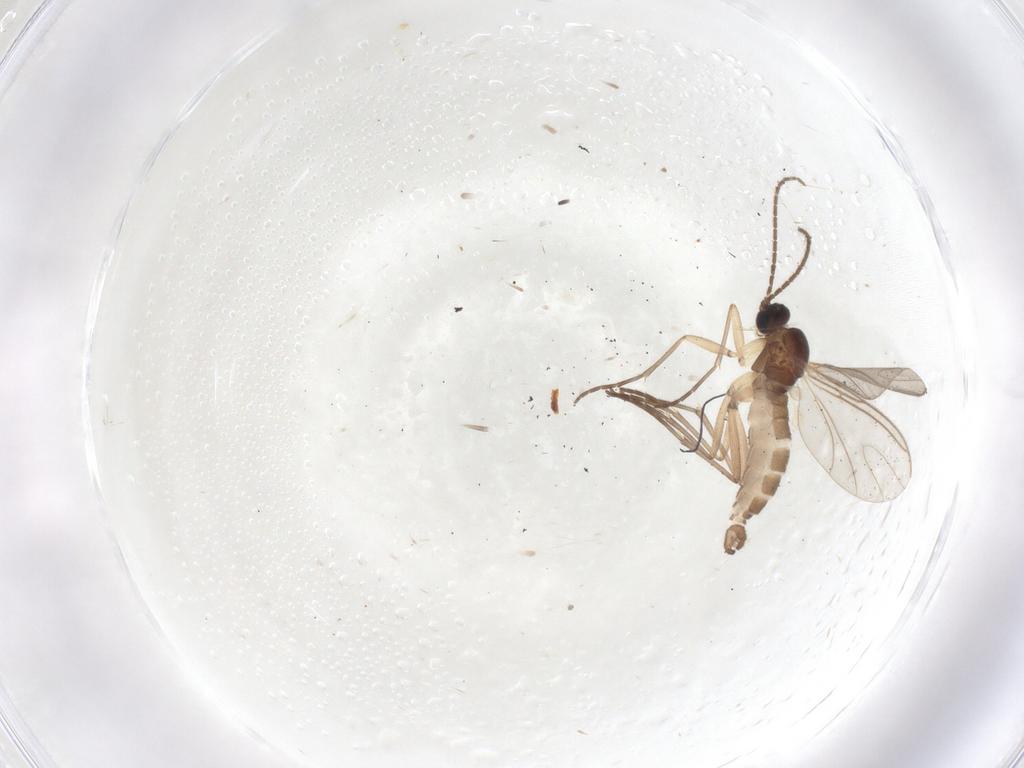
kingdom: Animalia
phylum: Arthropoda
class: Insecta
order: Diptera
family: Sciaridae
